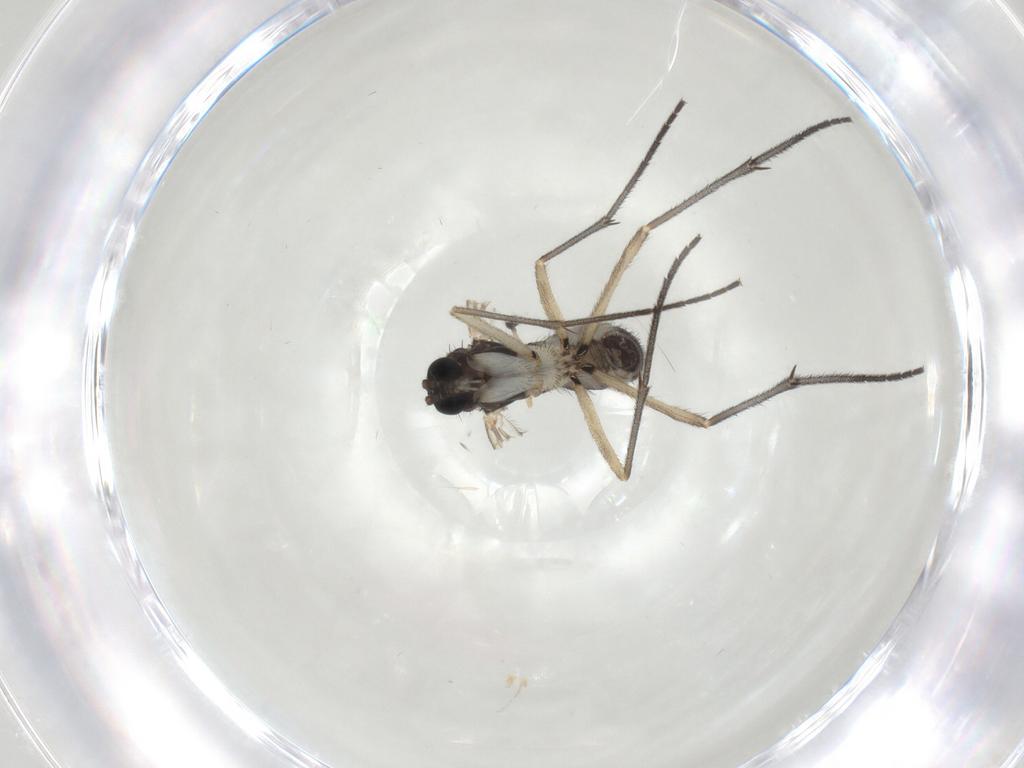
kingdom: Animalia
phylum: Arthropoda
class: Insecta
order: Diptera
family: Sciaridae
